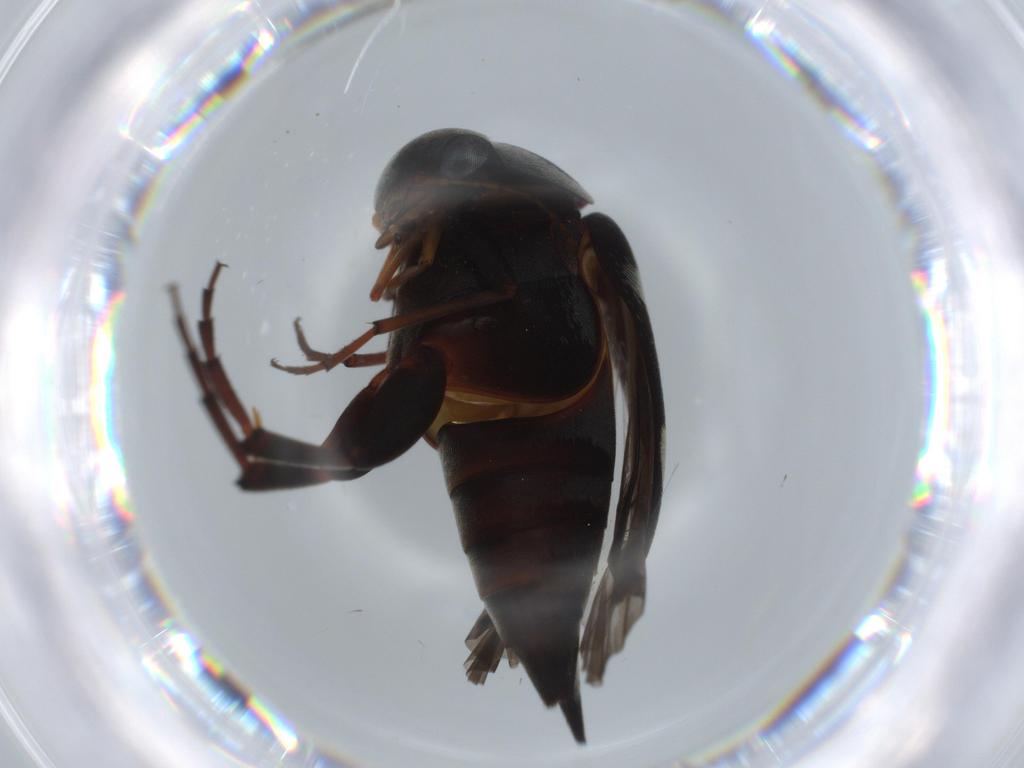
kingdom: Animalia
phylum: Arthropoda
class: Insecta
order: Coleoptera
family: Mordellidae
